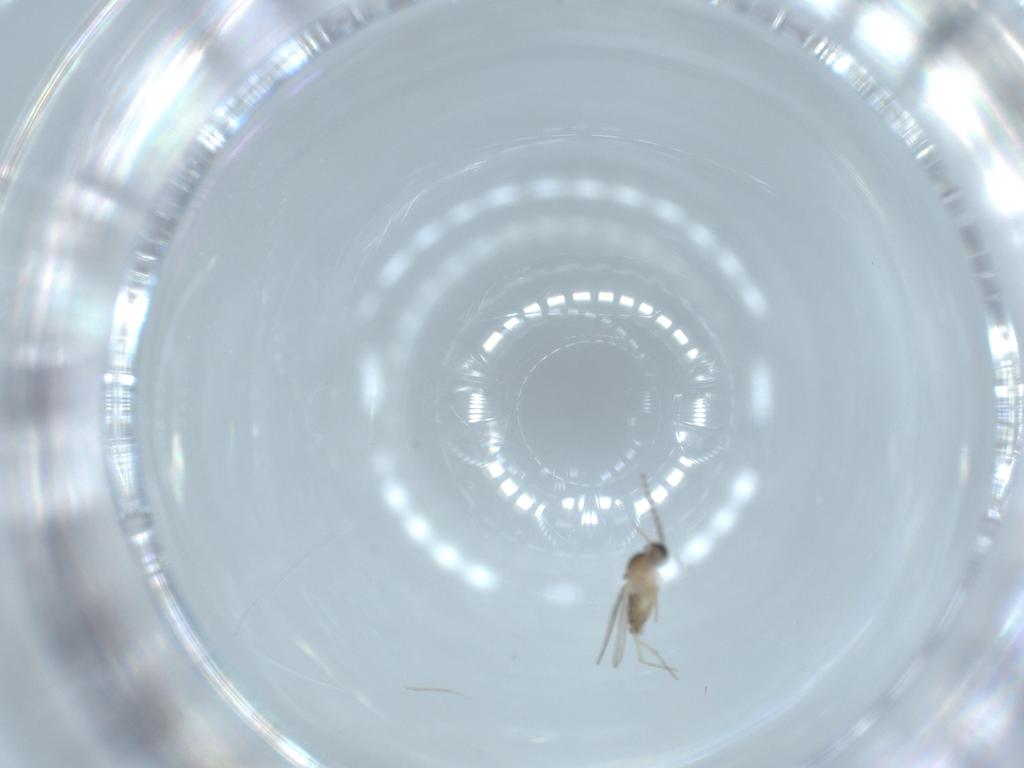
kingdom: Animalia
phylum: Arthropoda
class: Insecta
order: Diptera
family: Cecidomyiidae
